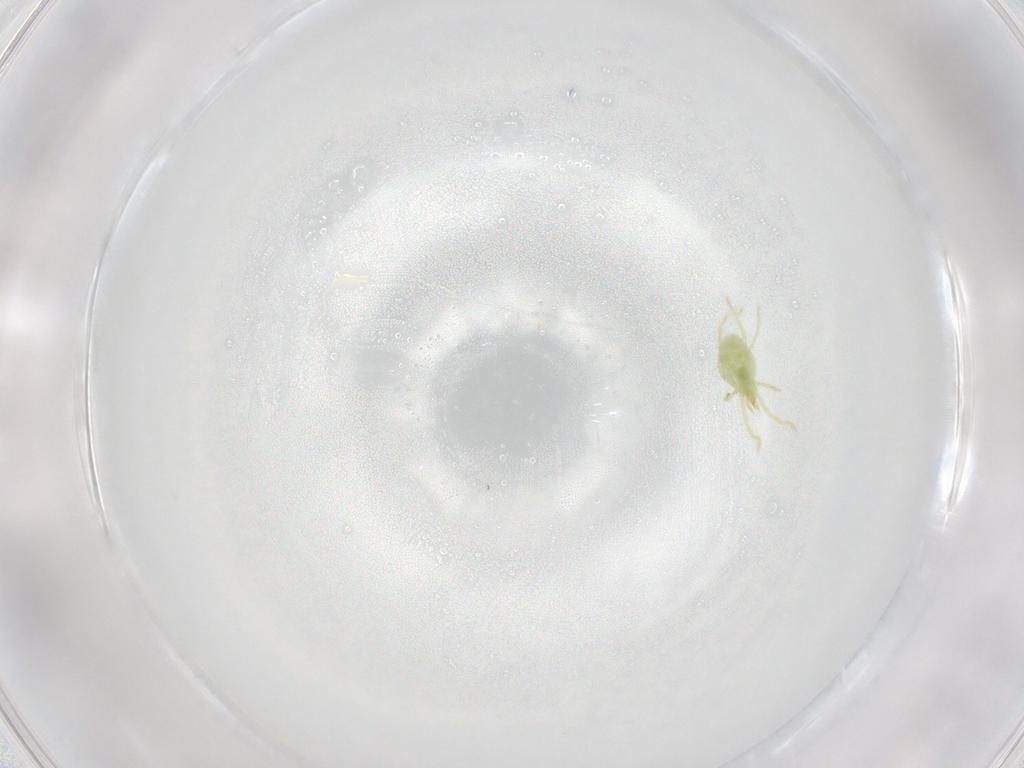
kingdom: Animalia
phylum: Arthropoda
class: Arachnida
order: Trombidiformes
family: Erythraeidae
